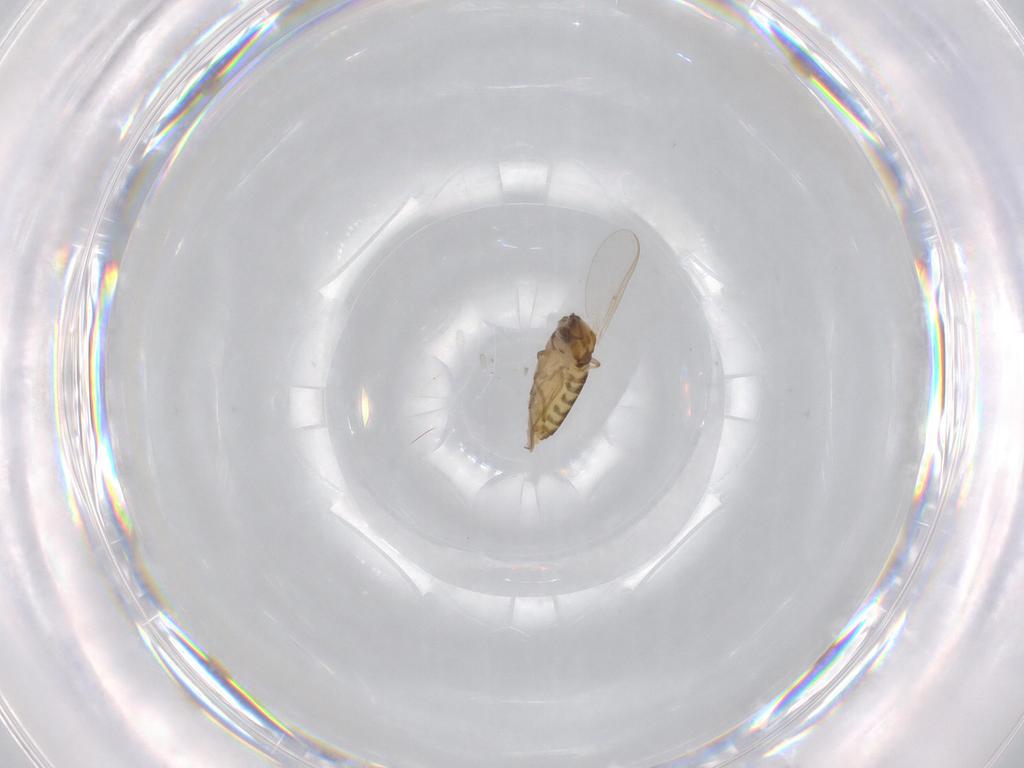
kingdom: Animalia
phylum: Arthropoda
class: Insecta
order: Diptera
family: Chironomidae
